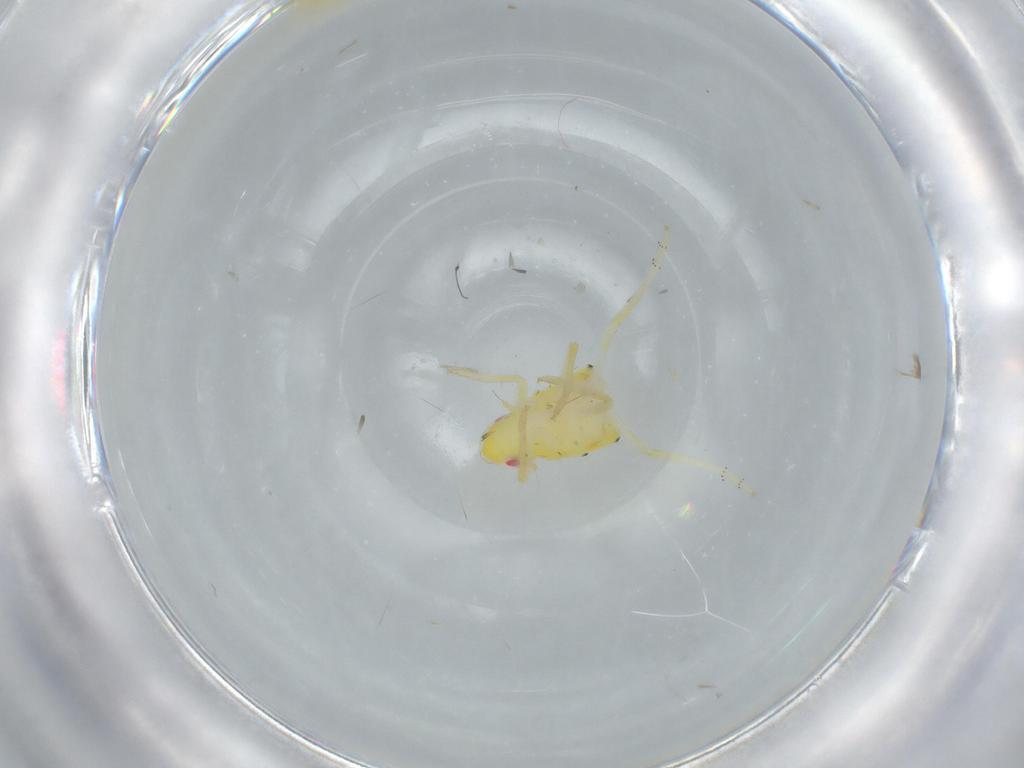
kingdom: Animalia
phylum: Arthropoda
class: Insecta
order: Hemiptera
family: Tropiduchidae
